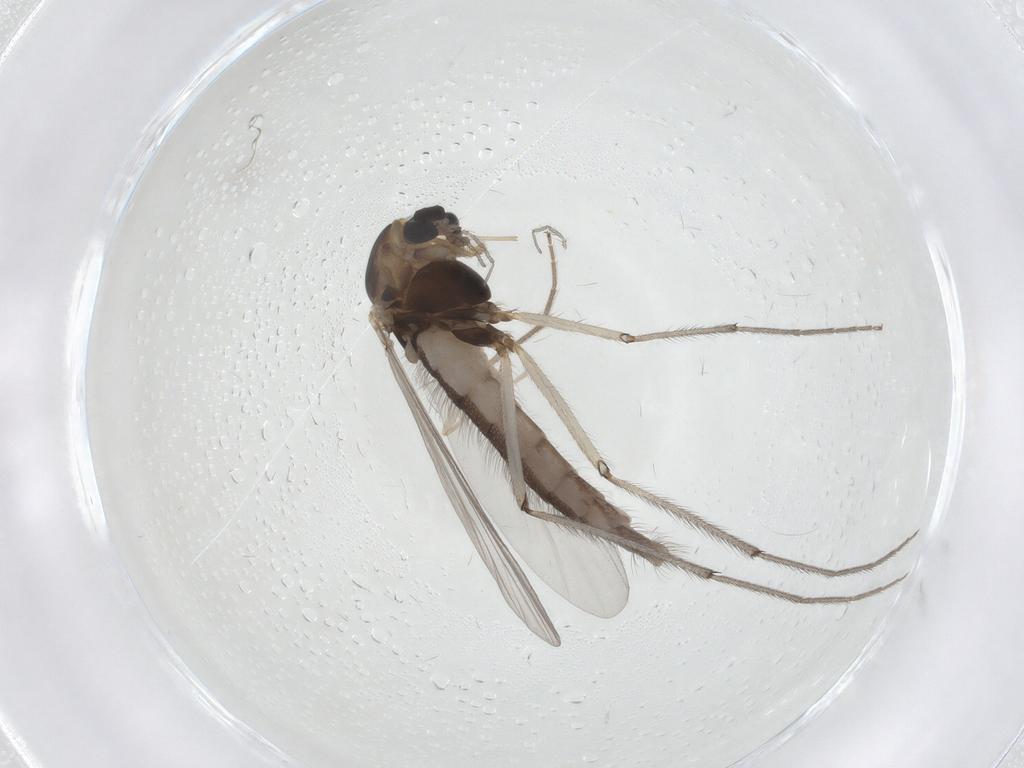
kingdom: Animalia
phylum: Arthropoda
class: Insecta
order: Diptera
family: Chironomidae
